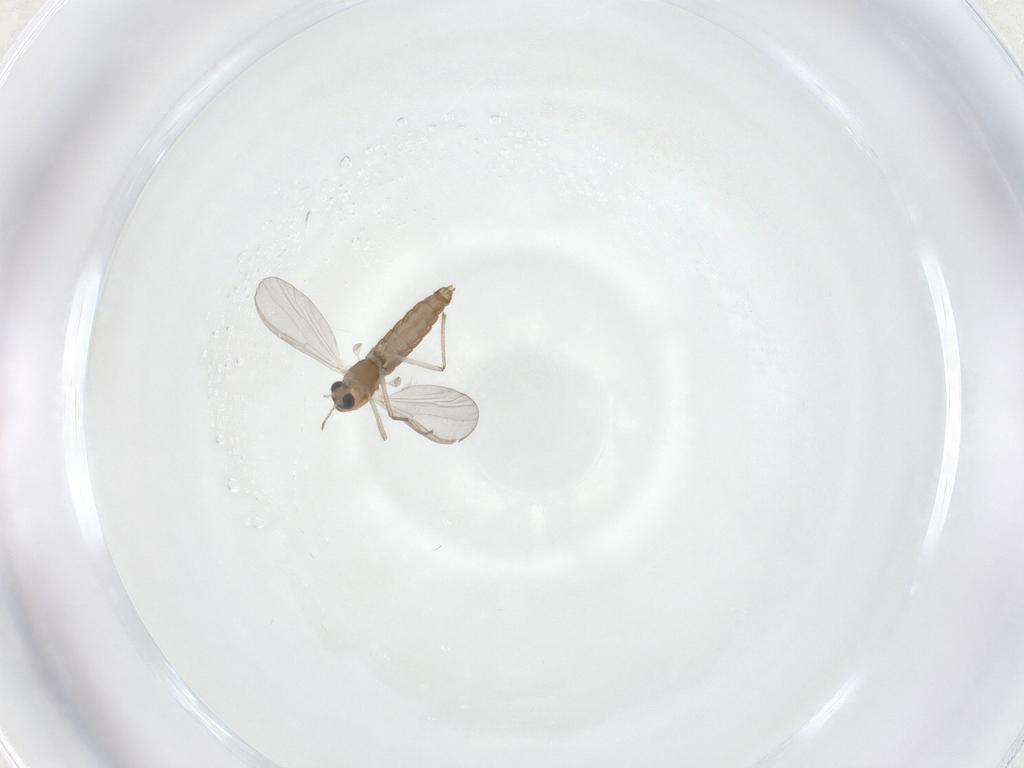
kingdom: Animalia
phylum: Arthropoda
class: Insecta
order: Diptera
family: Chironomidae
